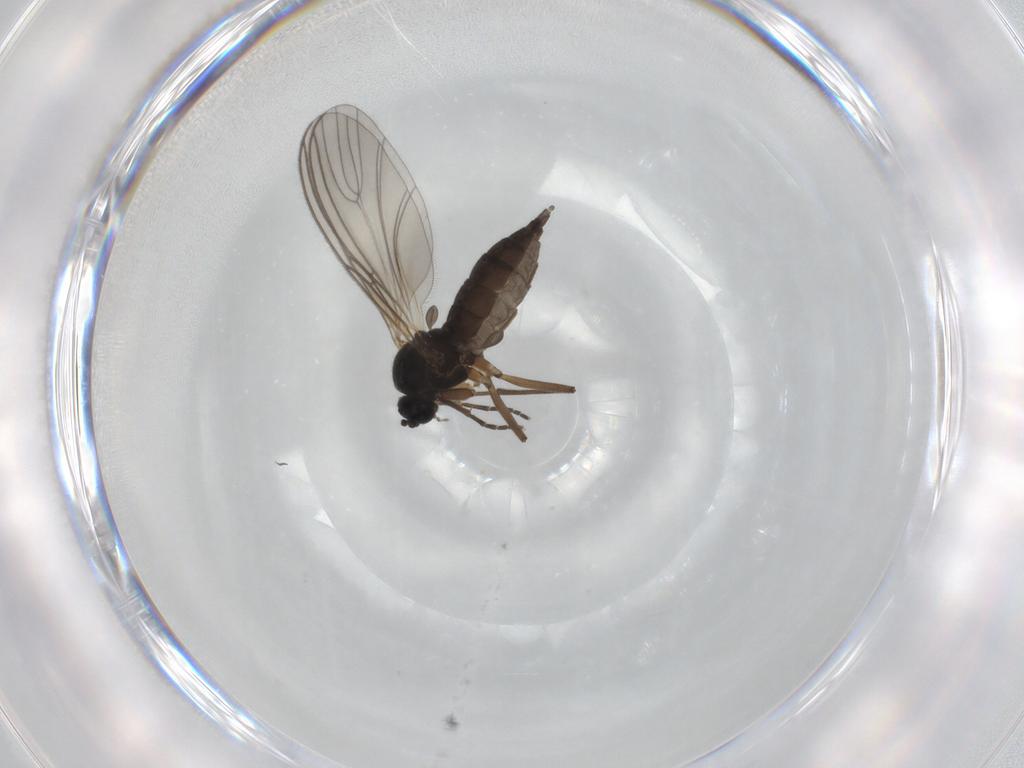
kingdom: Animalia
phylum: Arthropoda
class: Insecta
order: Diptera
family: Sciaridae
